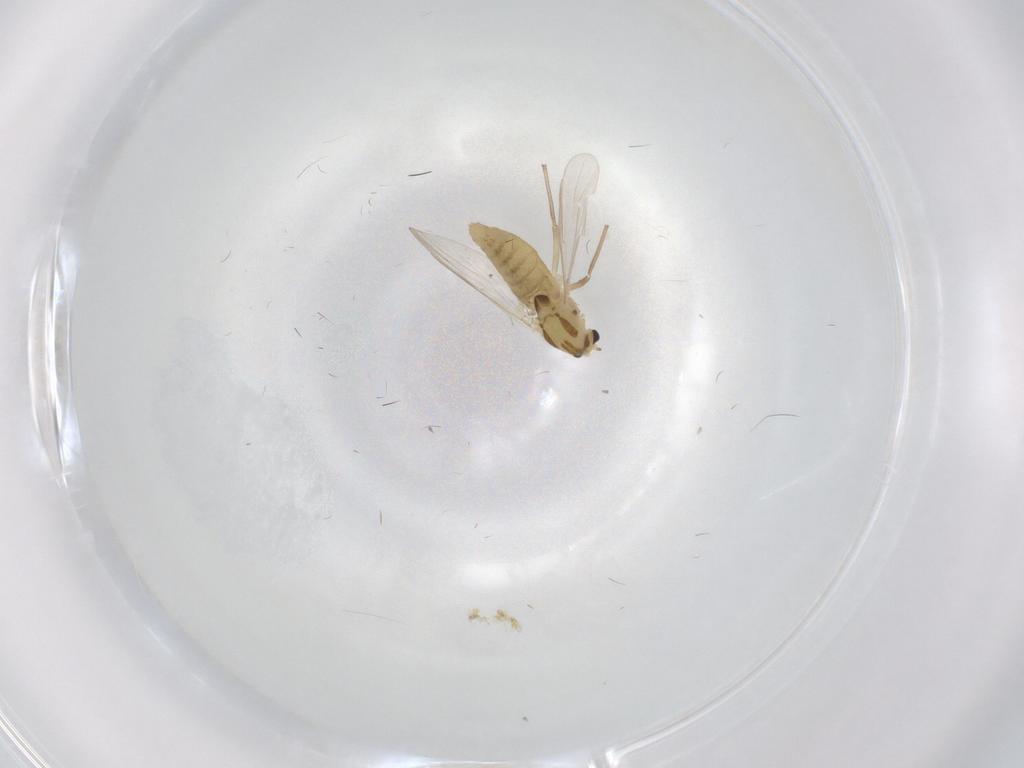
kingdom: Animalia
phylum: Arthropoda
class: Insecta
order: Diptera
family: Chironomidae
